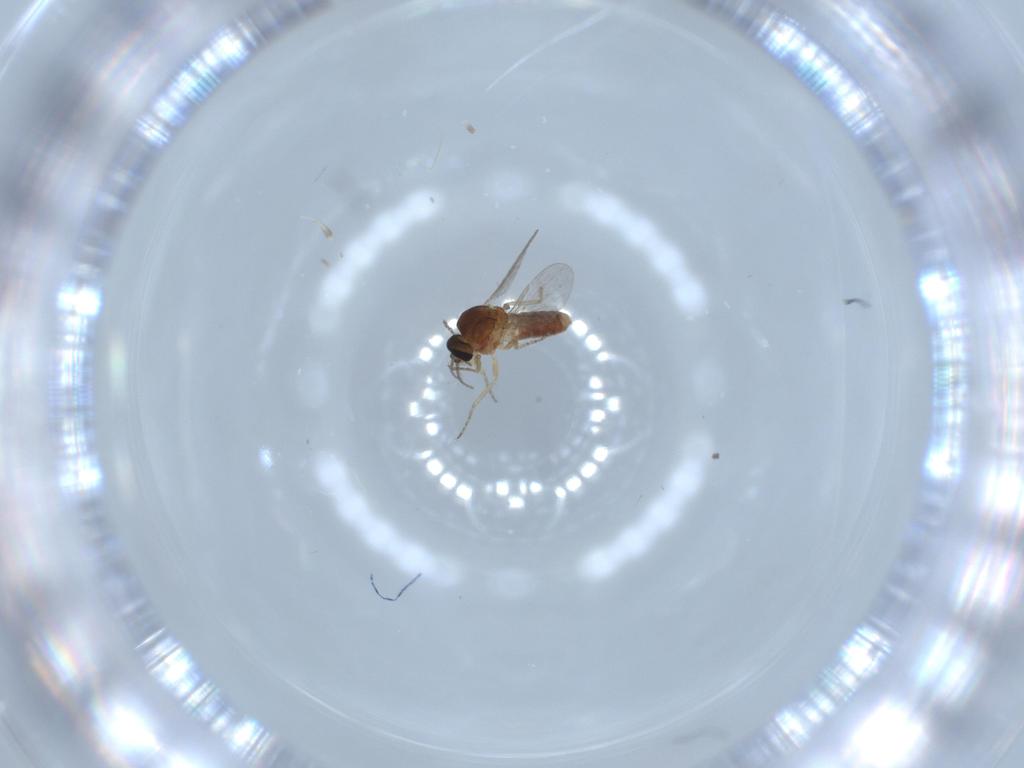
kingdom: Animalia
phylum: Arthropoda
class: Insecta
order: Diptera
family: Ceratopogonidae
